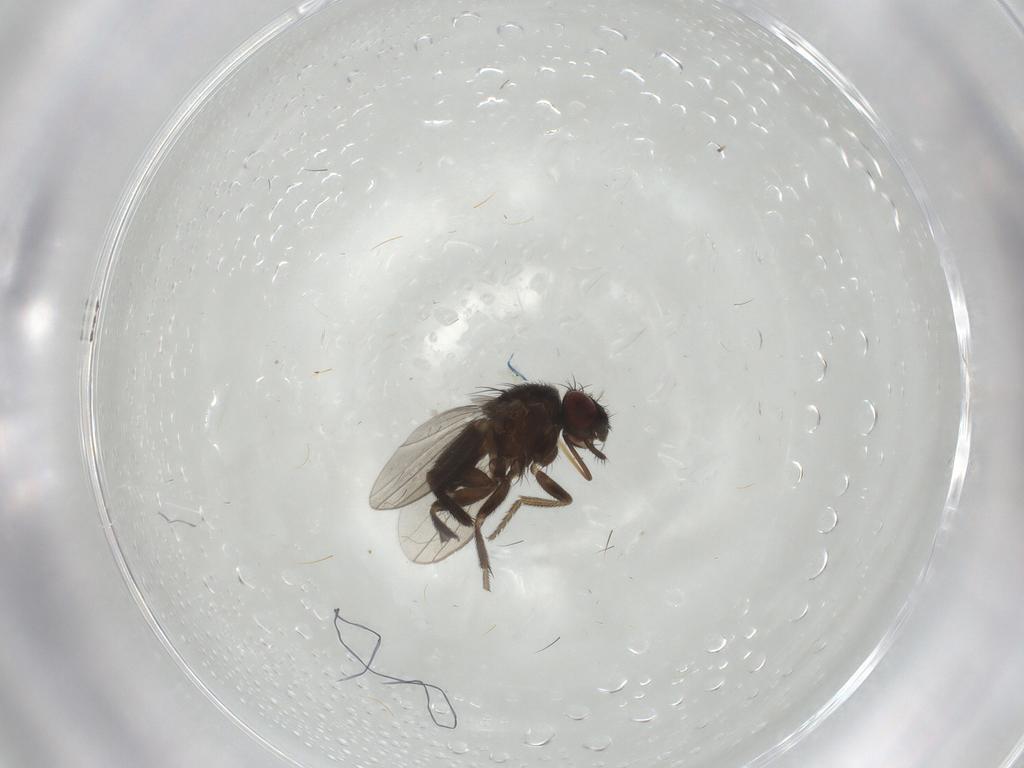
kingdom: Animalia
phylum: Arthropoda
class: Insecta
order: Diptera
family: Milichiidae
